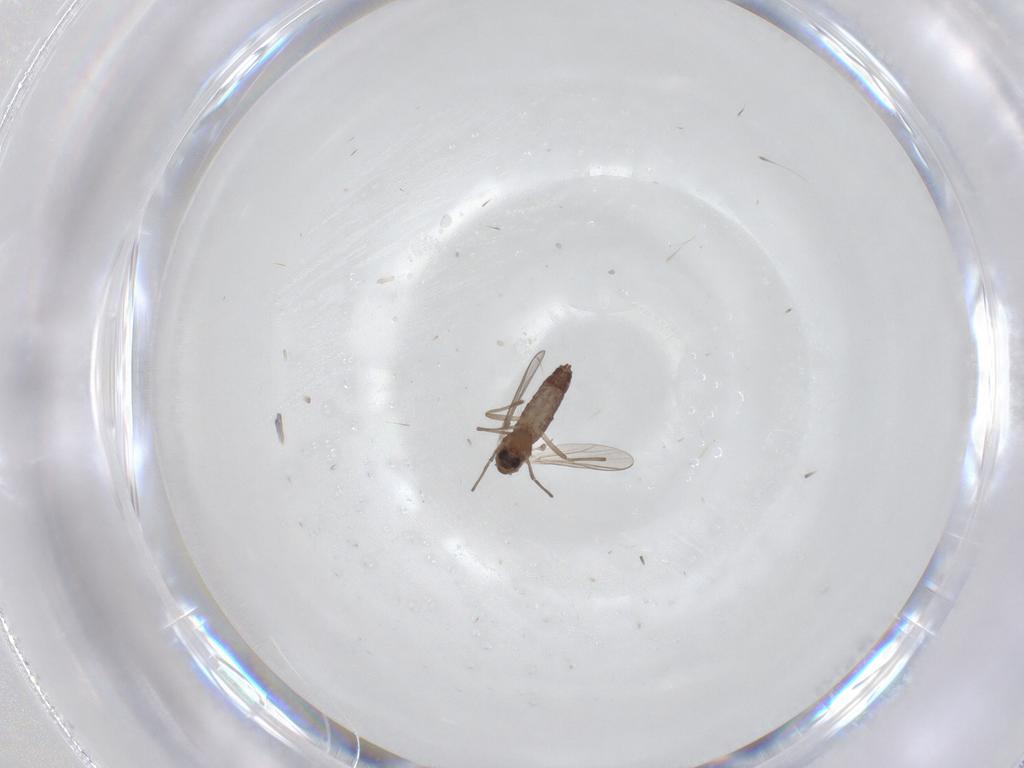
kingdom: Animalia
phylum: Arthropoda
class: Insecta
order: Diptera
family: Chironomidae
